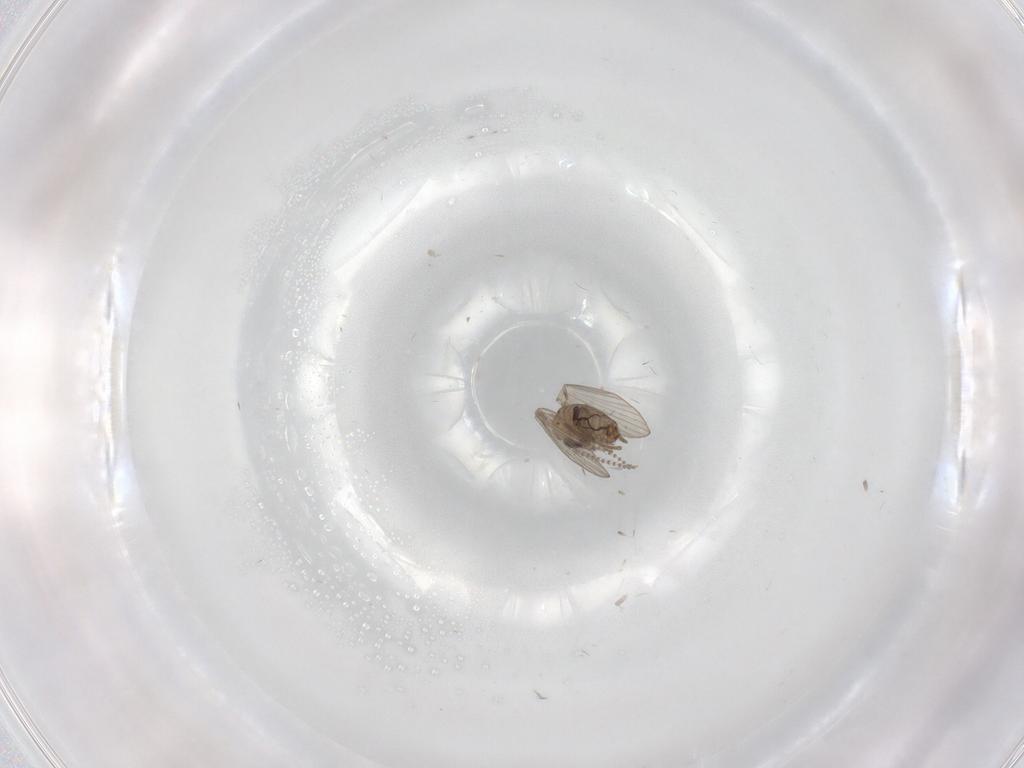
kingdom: Animalia
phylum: Arthropoda
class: Insecta
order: Diptera
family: Psychodidae
